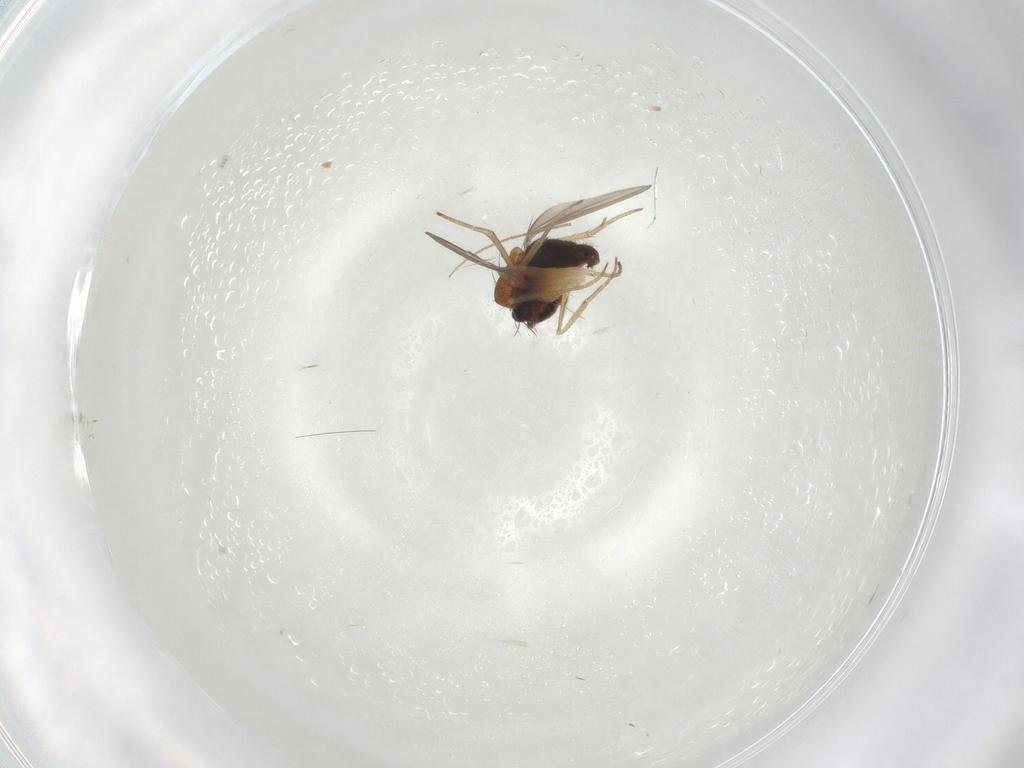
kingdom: Animalia
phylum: Arthropoda
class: Insecta
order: Diptera
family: Dolichopodidae
